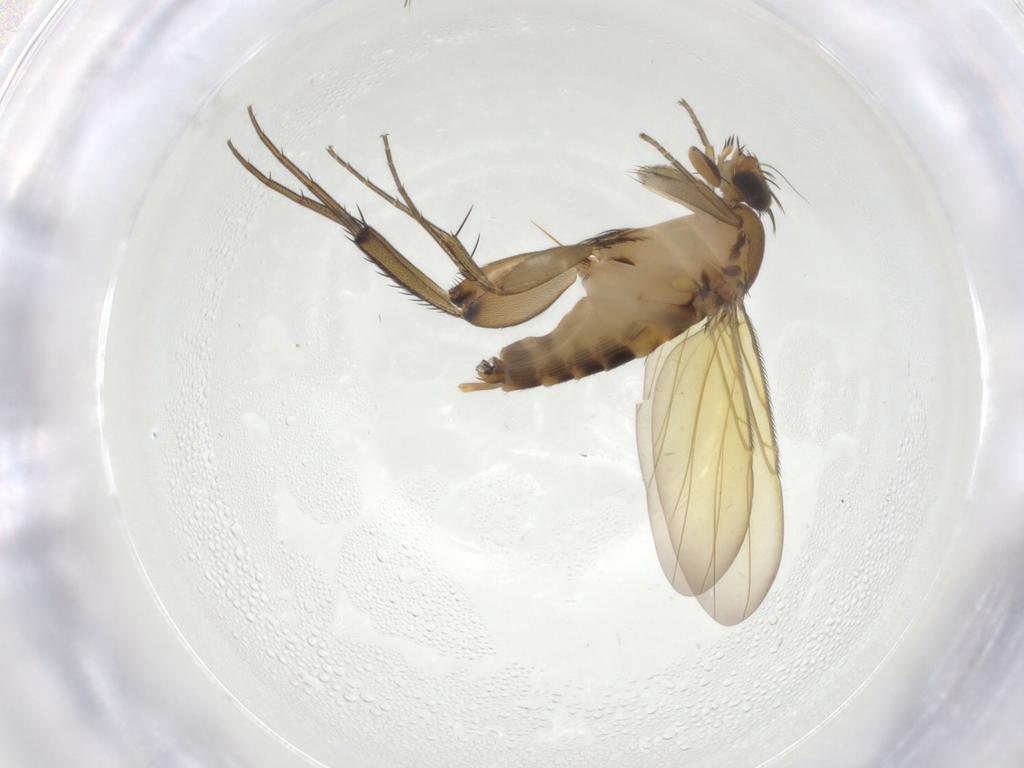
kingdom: Animalia
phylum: Arthropoda
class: Insecta
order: Diptera
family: Phoridae
